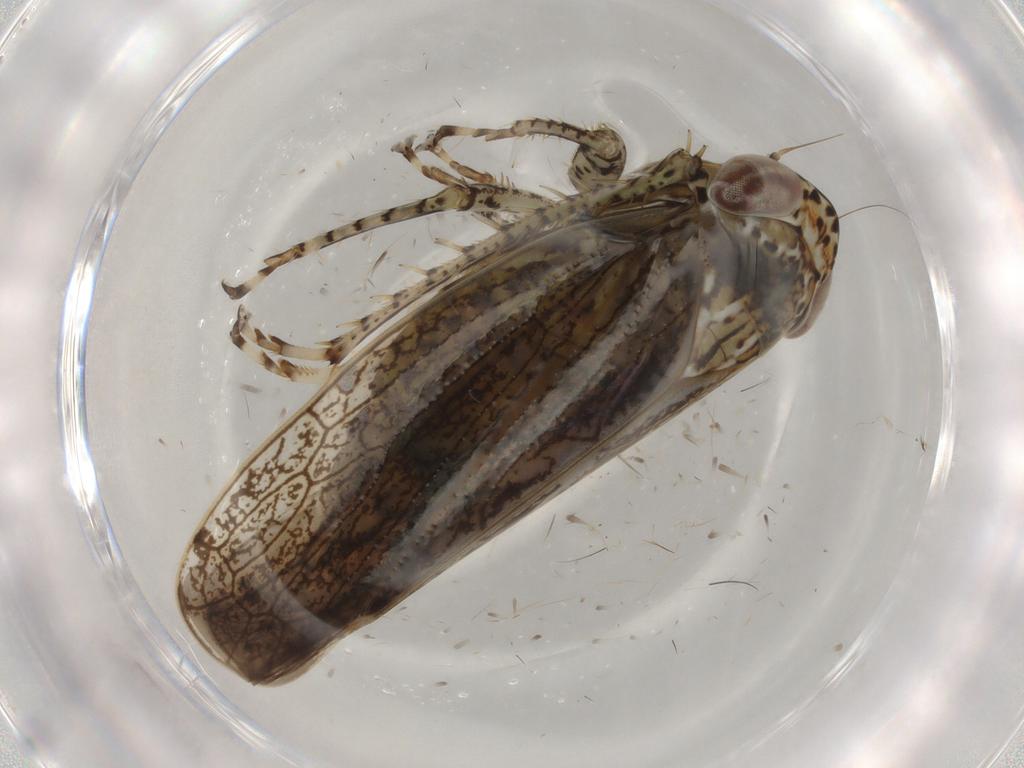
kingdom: Animalia
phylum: Arthropoda
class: Insecta
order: Hemiptera
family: Cicadellidae
